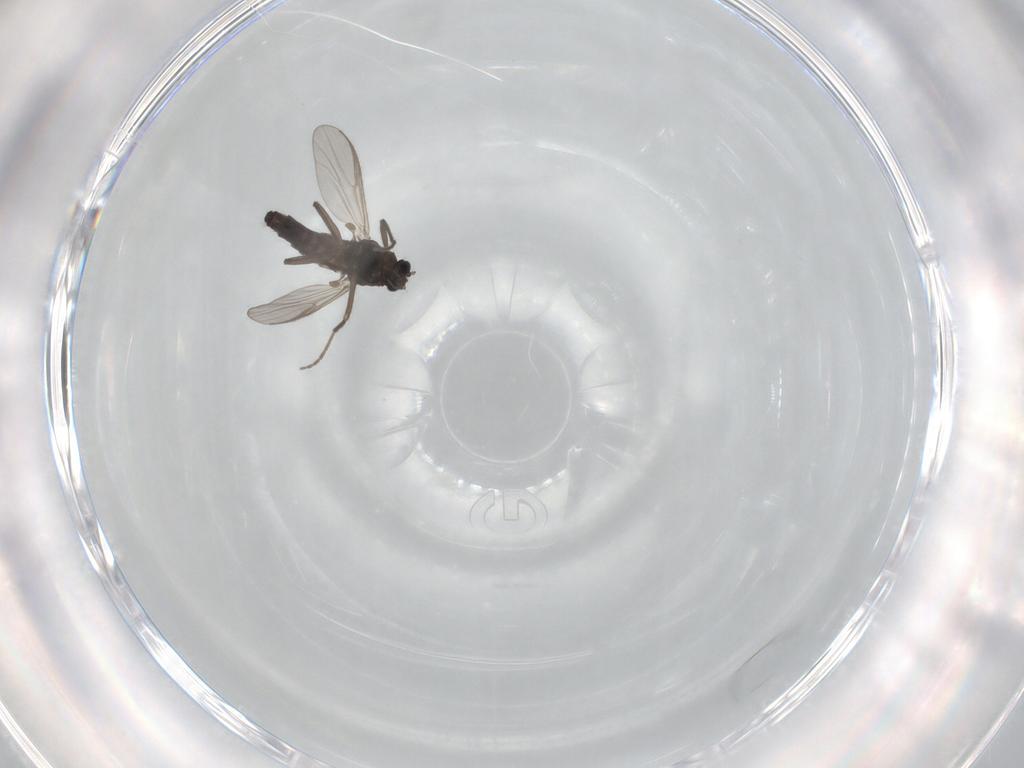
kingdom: Animalia
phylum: Arthropoda
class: Insecta
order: Diptera
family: Chironomidae
